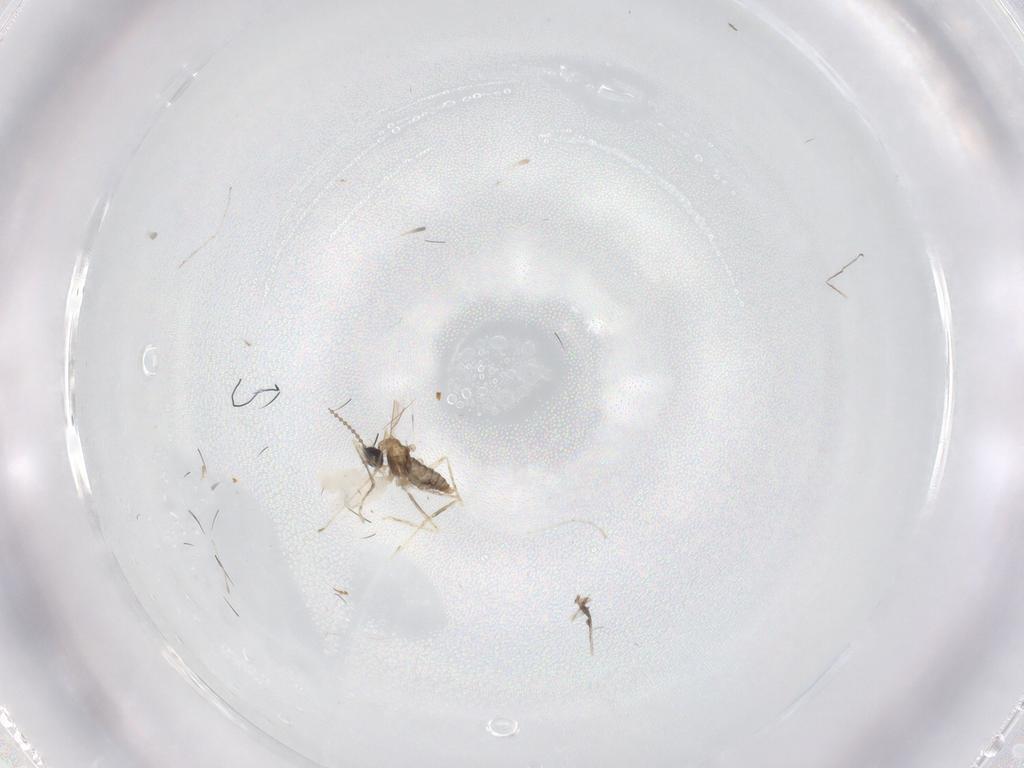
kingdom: Animalia
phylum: Arthropoda
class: Insecta
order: Diptera
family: Cecidomyiidae
